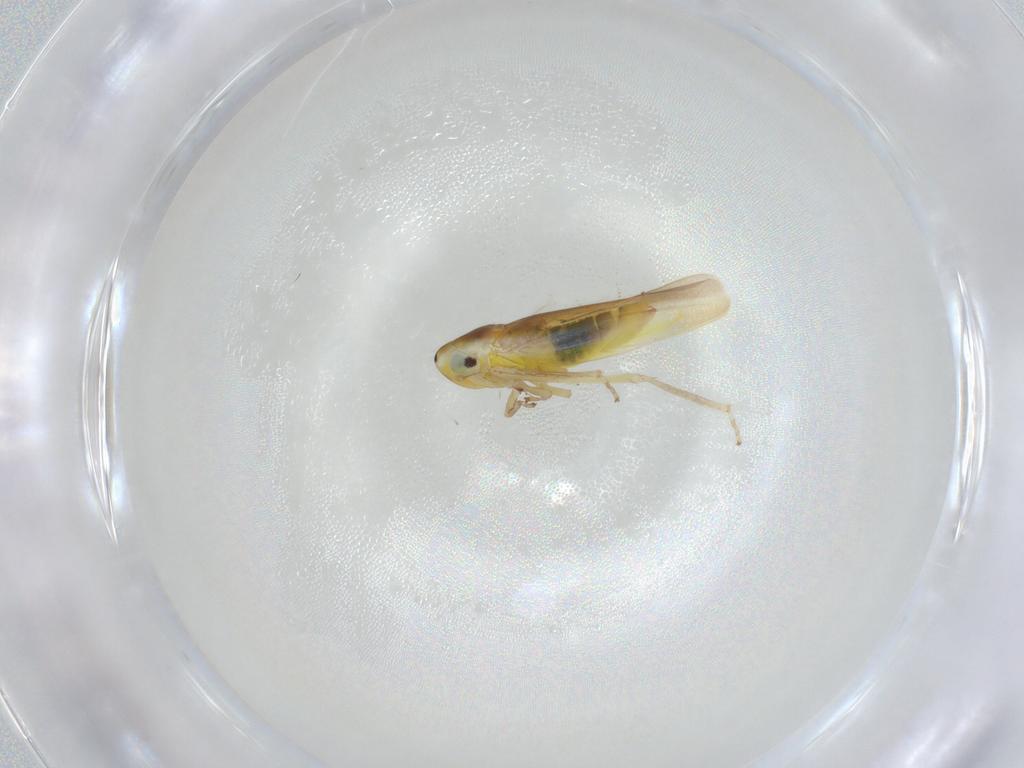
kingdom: Animalia
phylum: Arthropoda
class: Insecta
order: Hemiptera
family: Cicadellidae
